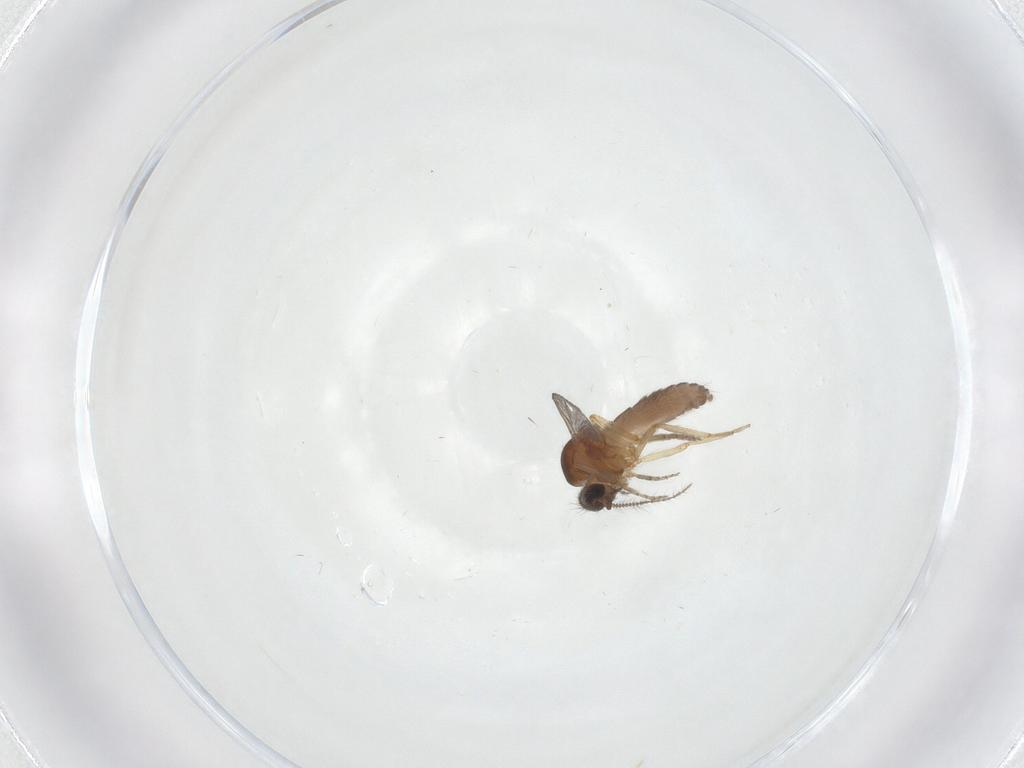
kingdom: Animalia
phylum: Arthropoda
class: Insecta
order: Diptera
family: Ceratopogonidae
